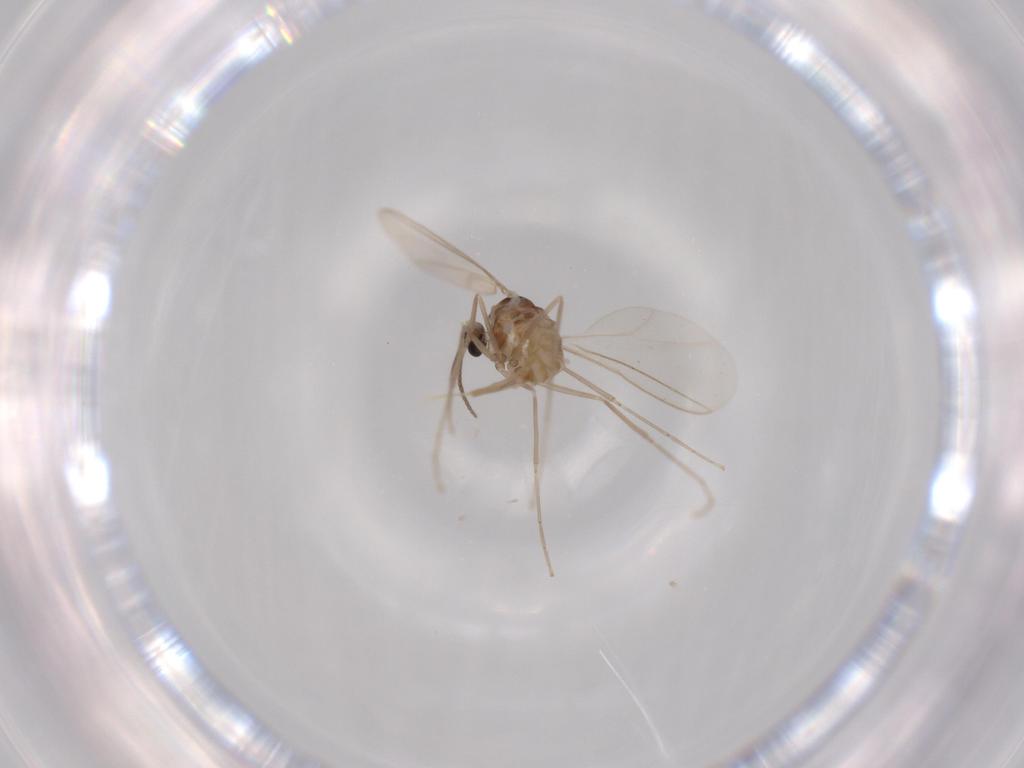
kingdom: Animalia
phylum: Arthropoda
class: Insecta
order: Diptera
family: Cecidomyiidae
